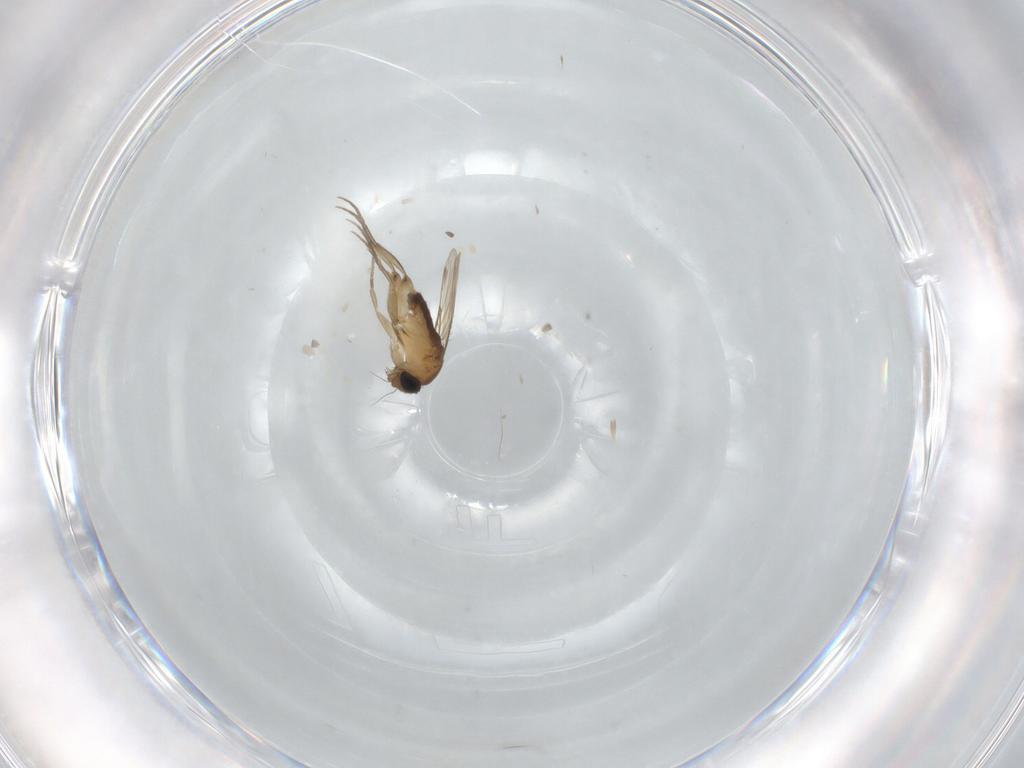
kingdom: Animalia
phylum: Arthropoda
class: Insecta
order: Diptera
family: Phoridae
